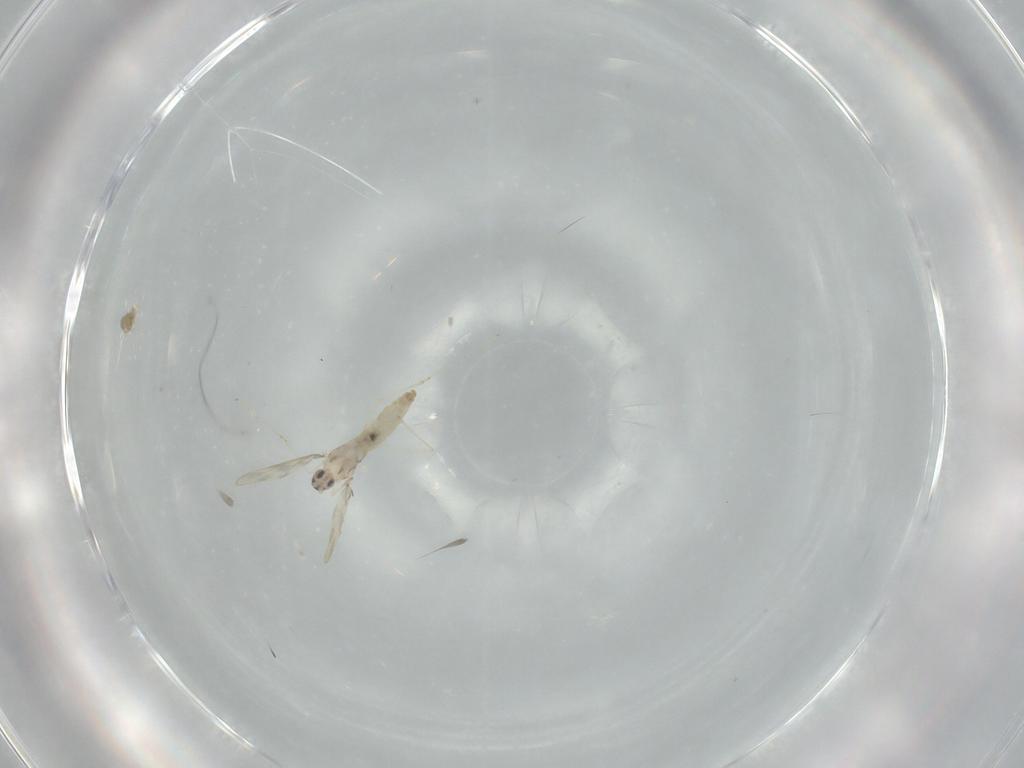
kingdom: Animalia
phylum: Arthropoda
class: Insecta
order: Diptera
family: Cecidomyiidae
